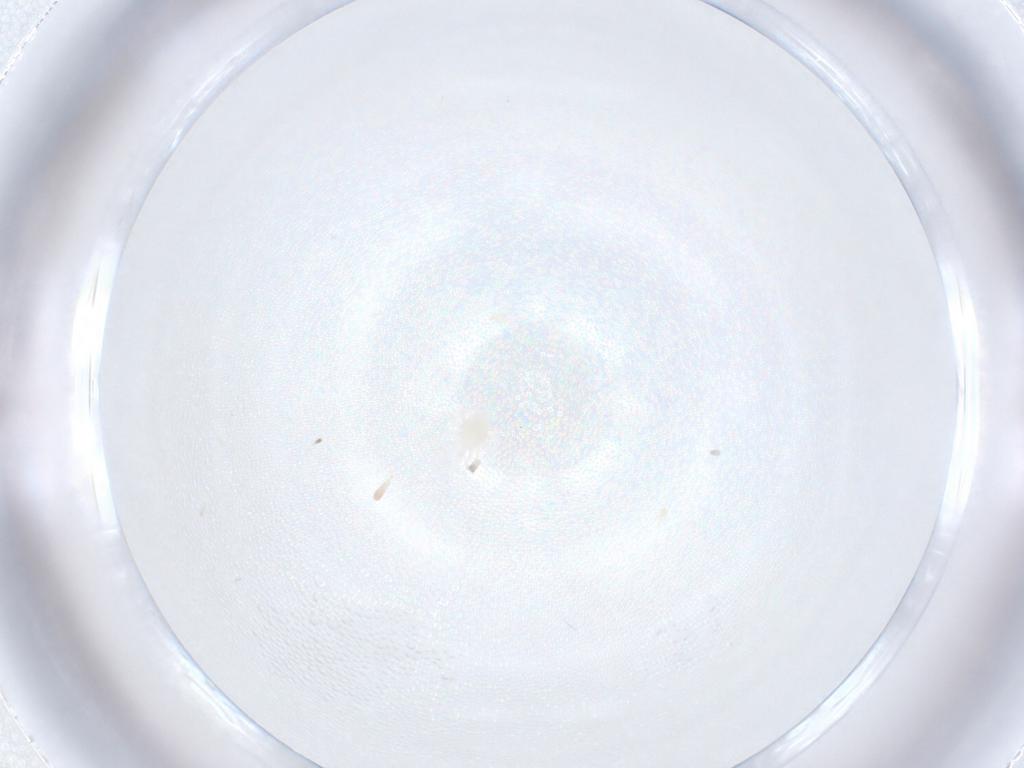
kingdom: Animalia
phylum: Arthropoda
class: Arachnida
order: Mesostigmata
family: Melicharidae
